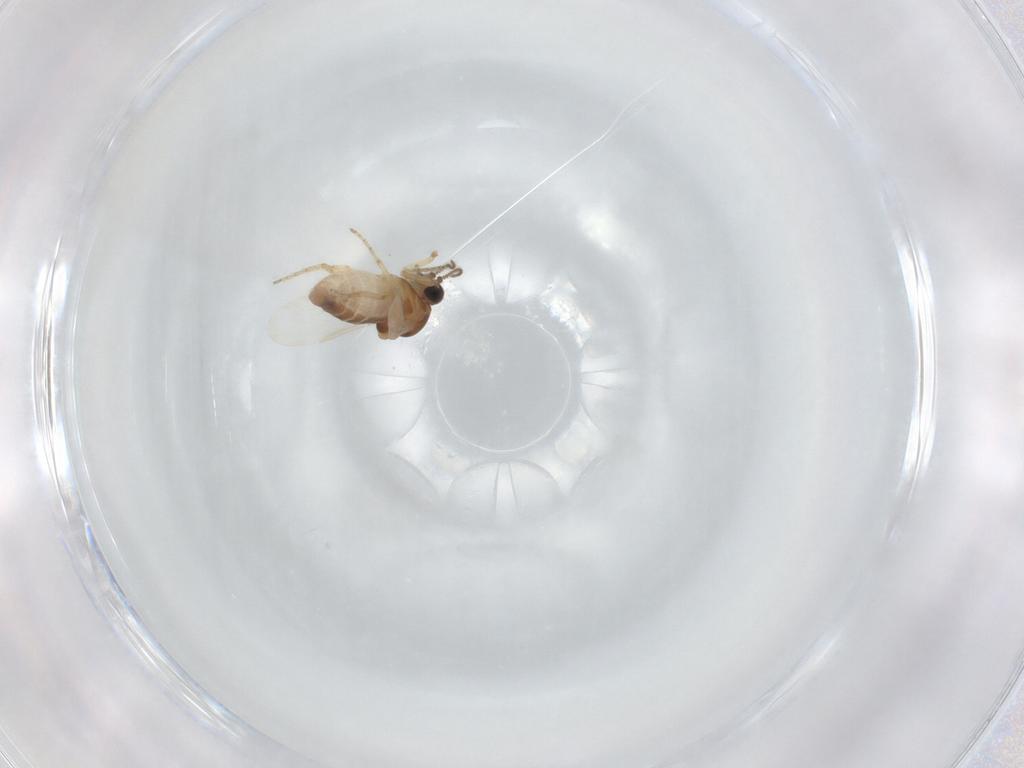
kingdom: Animalia
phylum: Arthropoda
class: Insecta
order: Diptera
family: Ceratopogonidae
